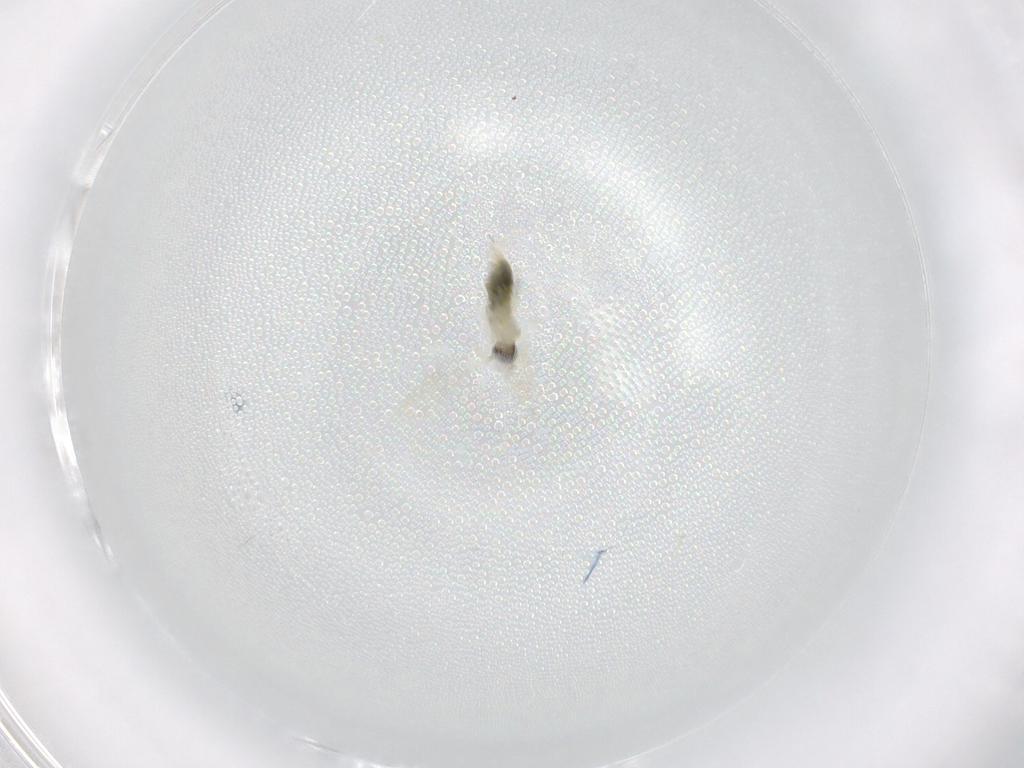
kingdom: Animalia
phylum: Arthropoda
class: Insecta
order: Diptera
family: Cecidomyiidae
